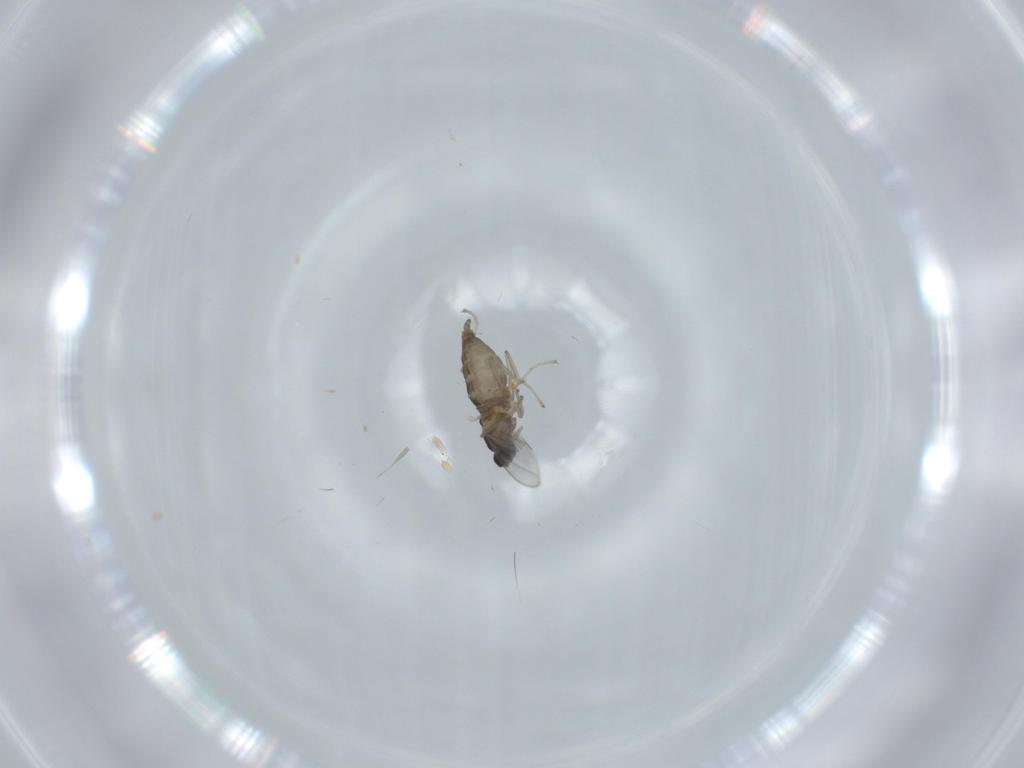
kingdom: Animalia
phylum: Arthropoda
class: Insecta
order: Diptera
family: Cecidomyiidae
